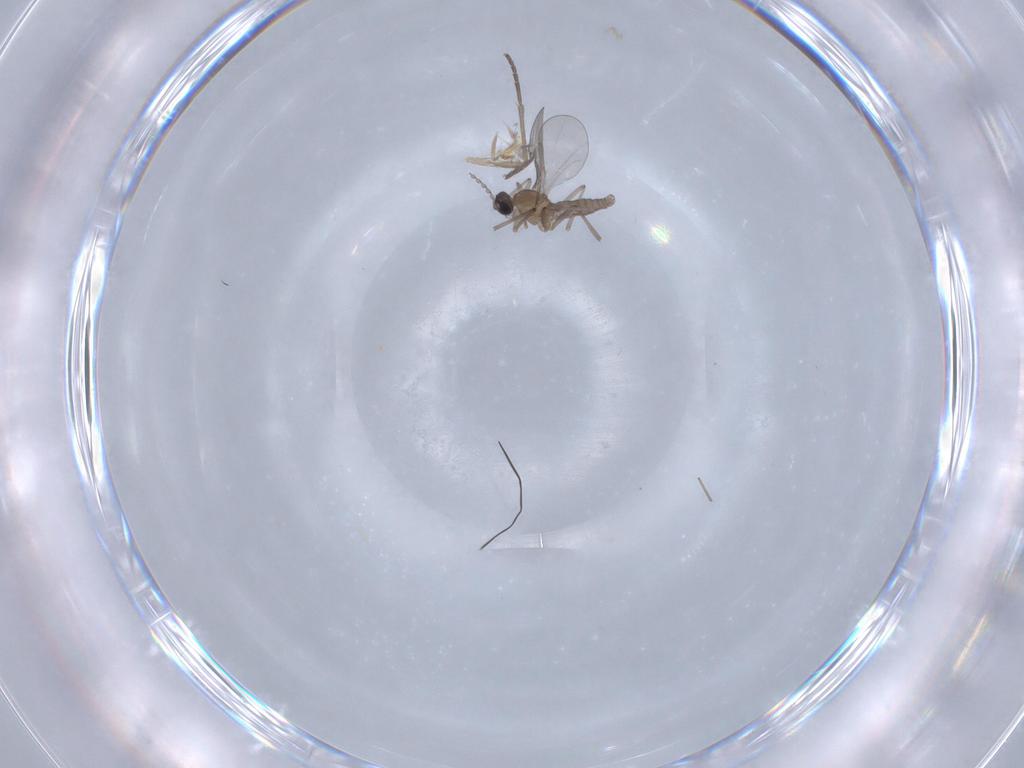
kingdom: Animalia
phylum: Arthropoda
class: Insecta
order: Diptera
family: Cecidomyiidae
